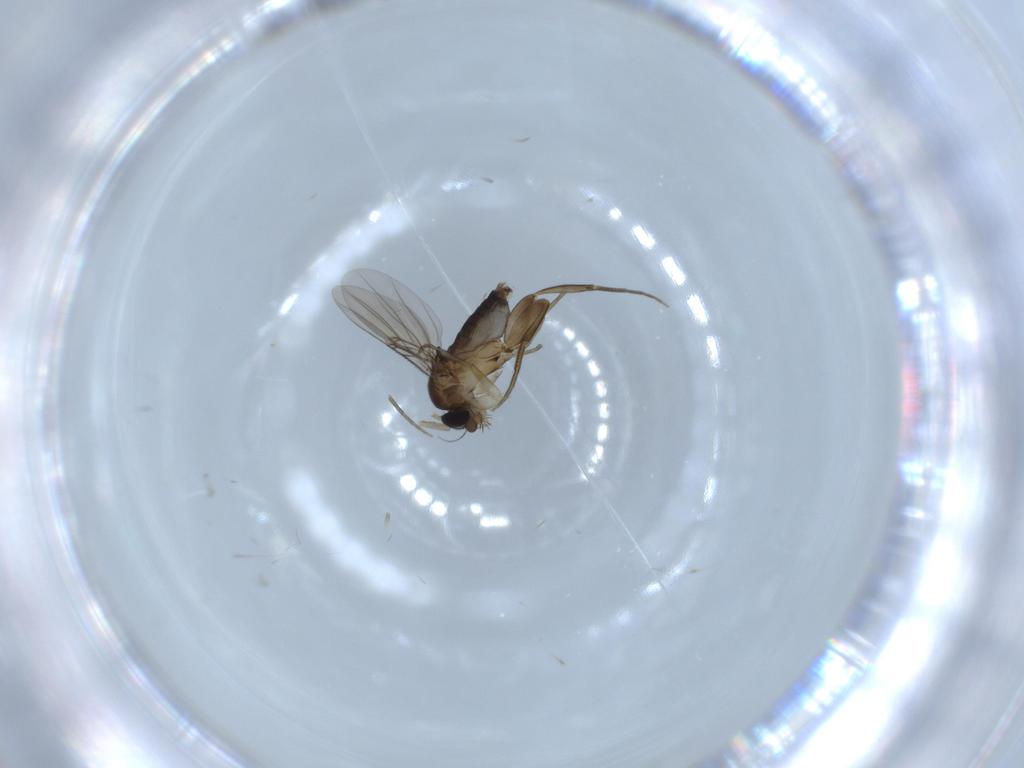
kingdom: Animalia
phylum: Arthropoda
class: Insecta
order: Diptera
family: Phoridae
